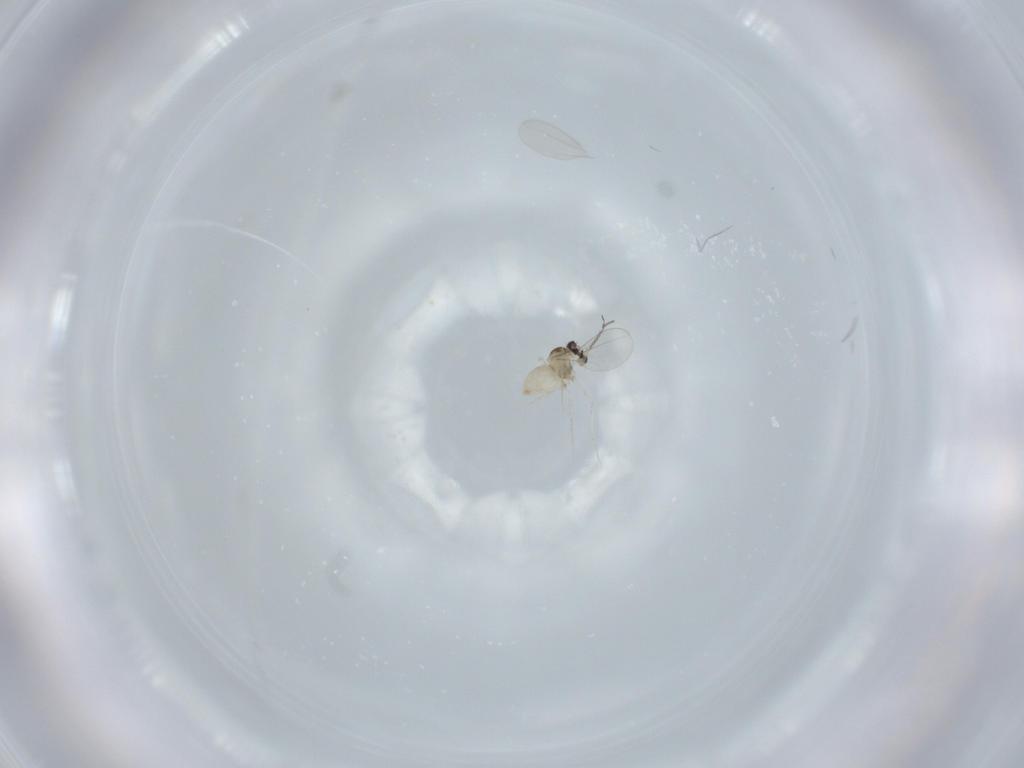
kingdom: Animalia
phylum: Arthropoda
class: Insecta
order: Diptera
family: Cecidomyiidae
